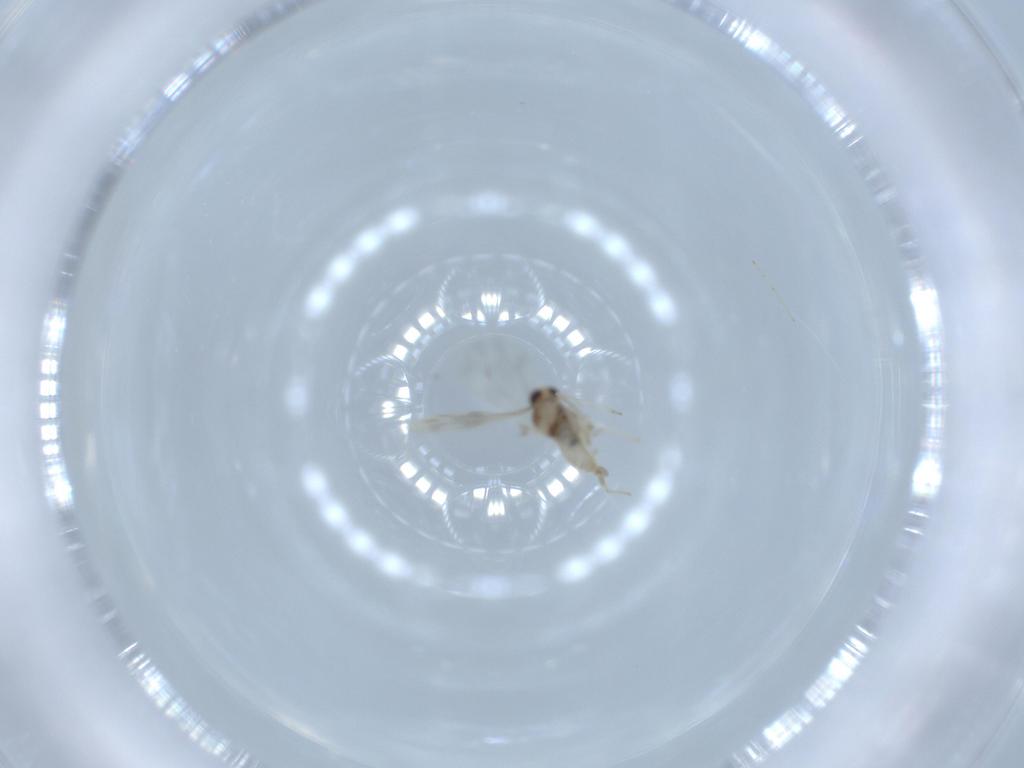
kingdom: Animalia
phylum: Arthropoda
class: Insecta
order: Diptera
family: Cecidomyiidae
